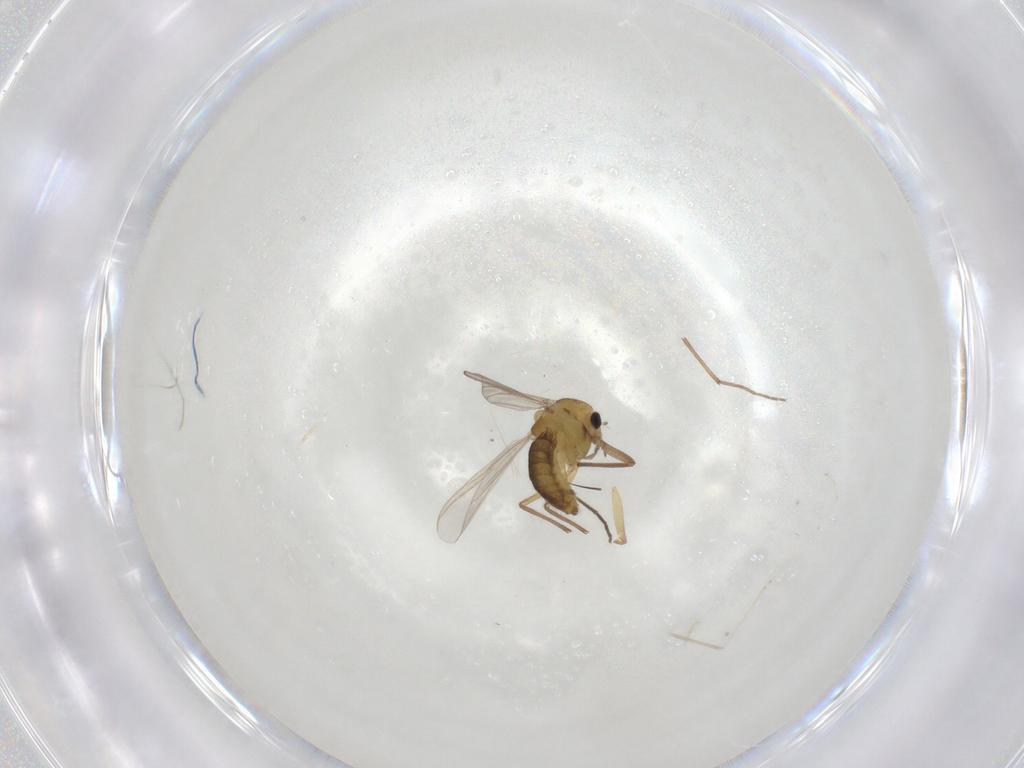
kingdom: Animalia
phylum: Arthropoda
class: Insecta
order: Diptera
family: Chironomidae
